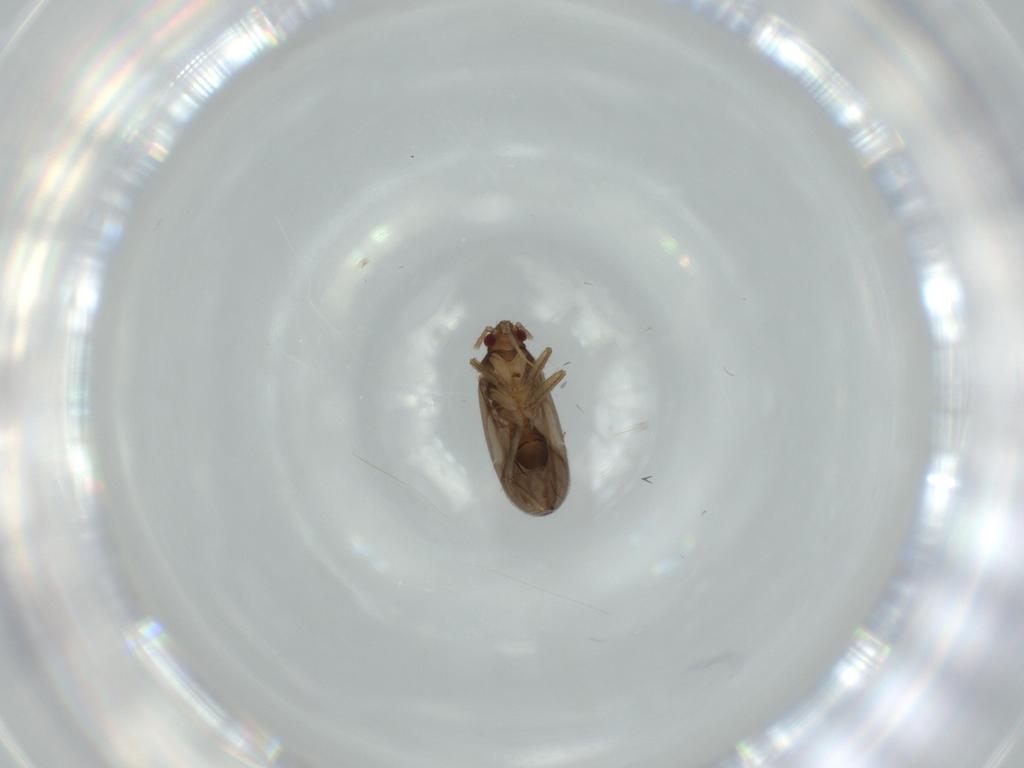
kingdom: Animalia
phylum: Arthropoda
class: Insecta
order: Hemiptera
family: Ceratocombidae
